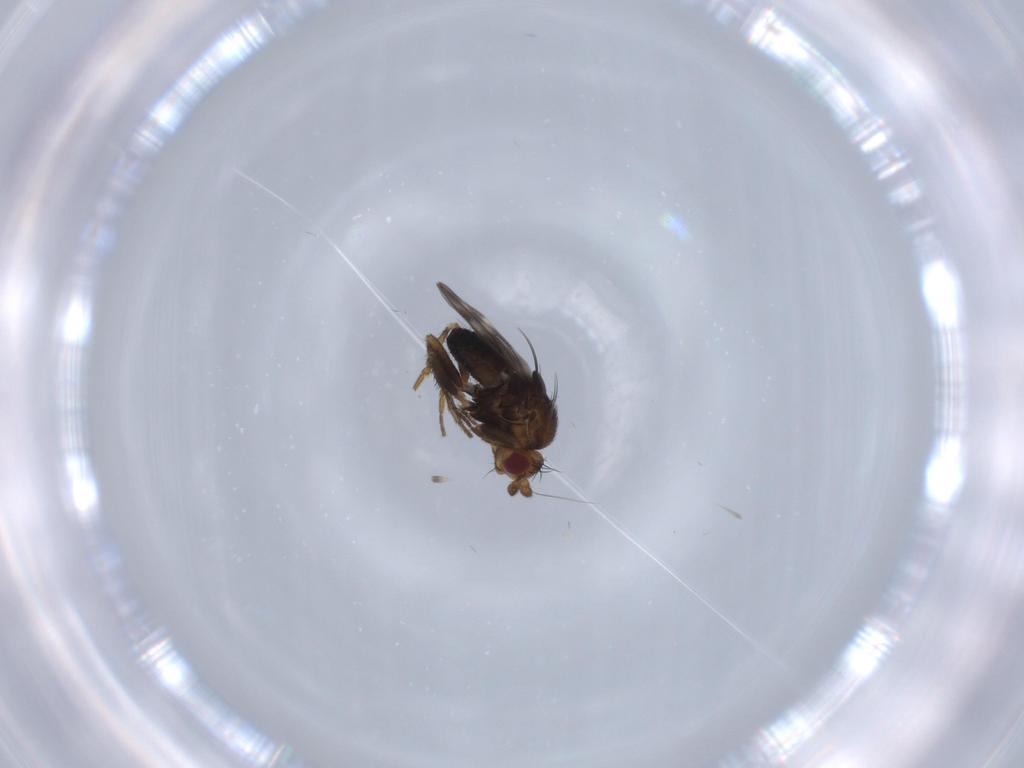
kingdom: Animalia
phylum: Arthropoda
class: Insecta
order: Diptera
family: Sphaeroceridae
